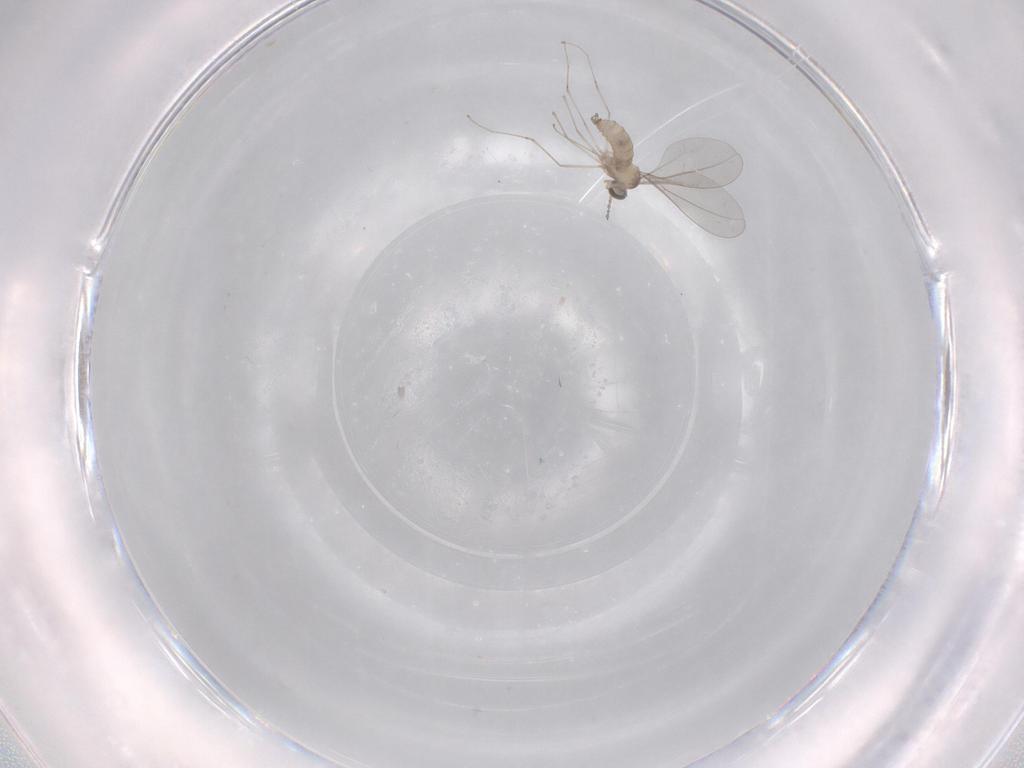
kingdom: Animalia
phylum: Arthropoda
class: Insecta
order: Diptera
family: Cecidomyiidae
